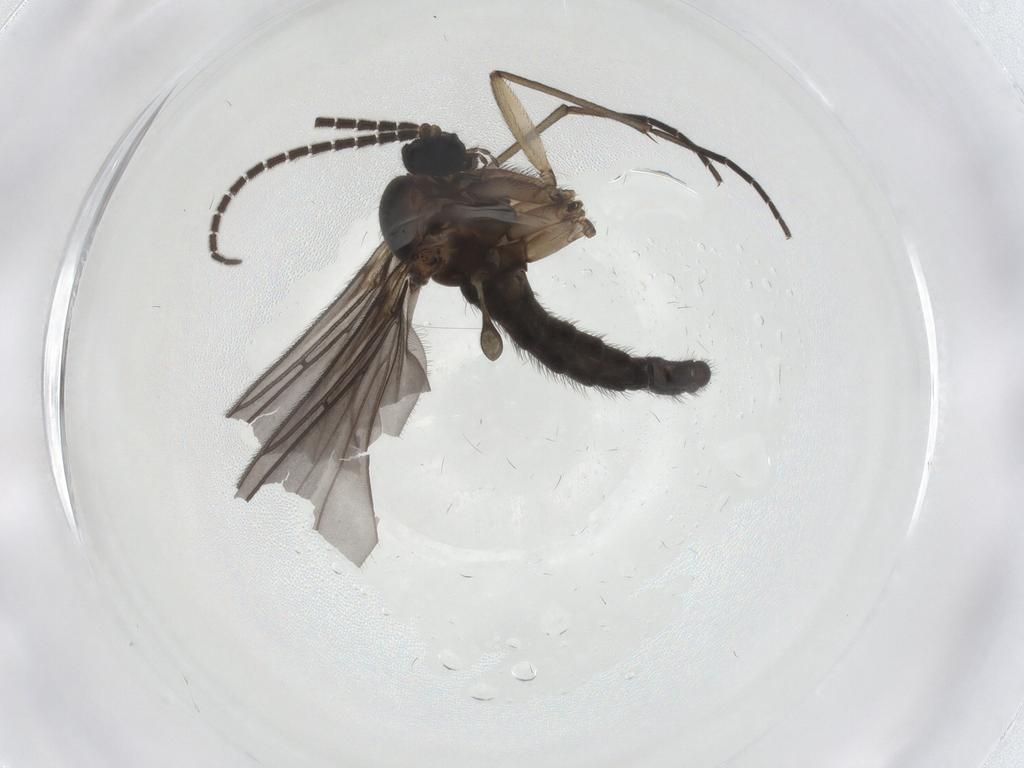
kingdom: Animalia
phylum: Arthropoda
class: Insecta
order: Diptera
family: Sciaridae
